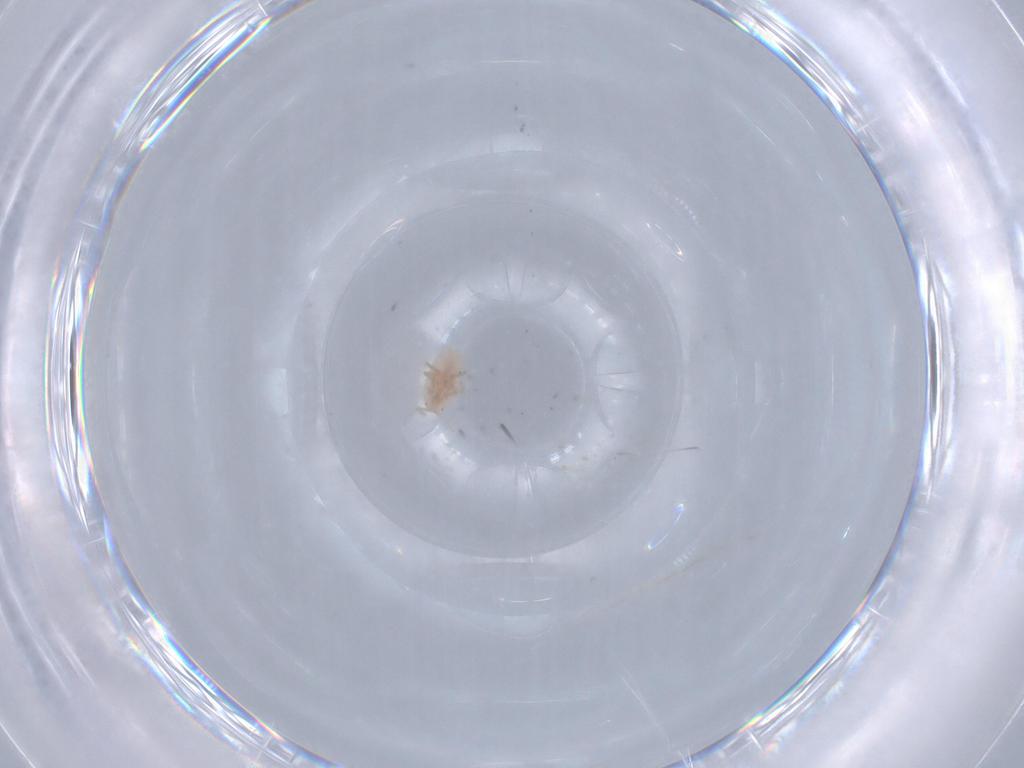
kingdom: Animalia
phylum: Arthropoda
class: Insecta
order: Hemiptera
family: Pseudococcidae
